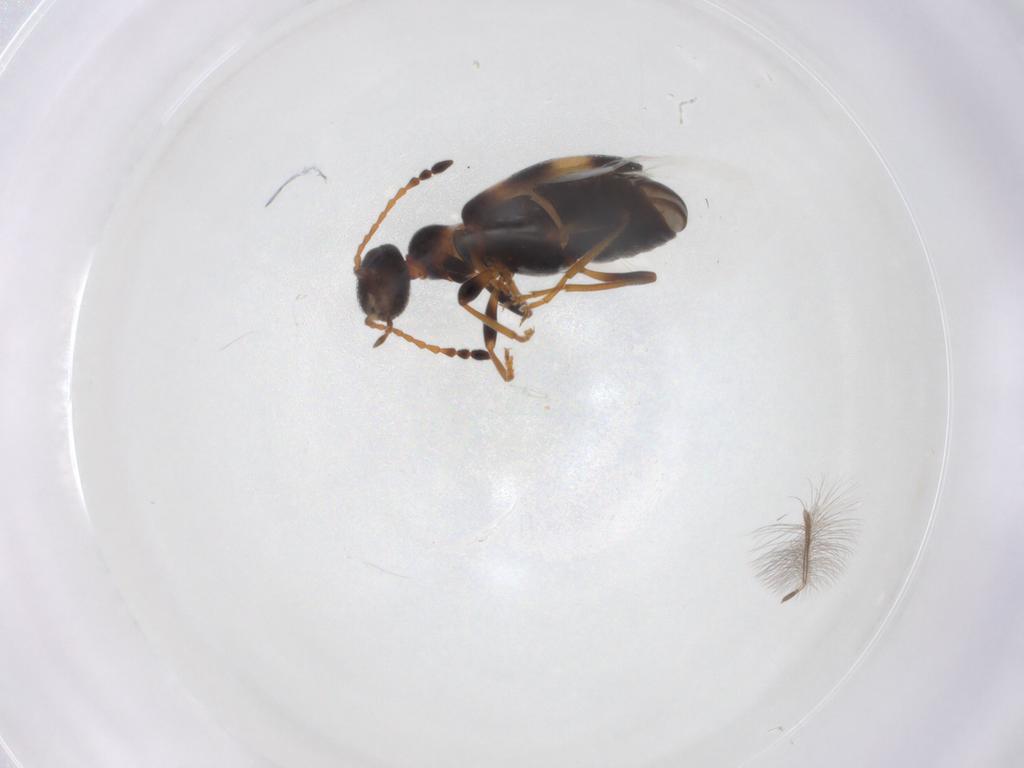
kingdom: Animalia
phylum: Arthropoda
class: Insecta
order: Coleoptera
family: Anthicidae
